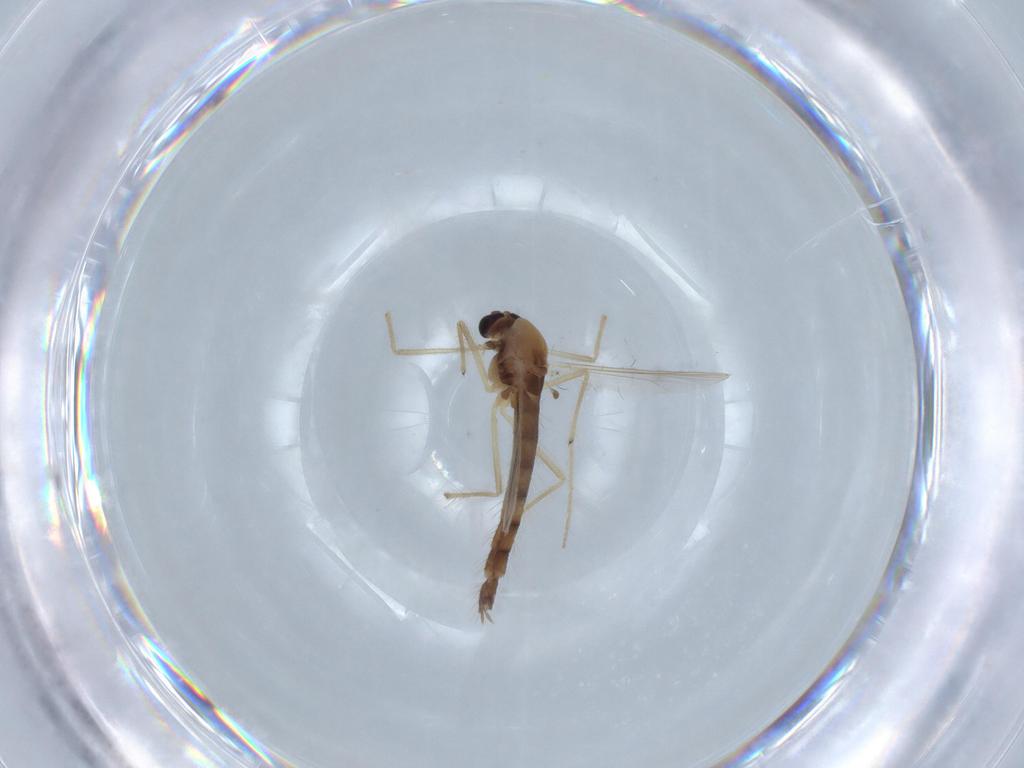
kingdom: Animalia
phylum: Arthropoda
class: Insecta
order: Diptera
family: Chironomidae
